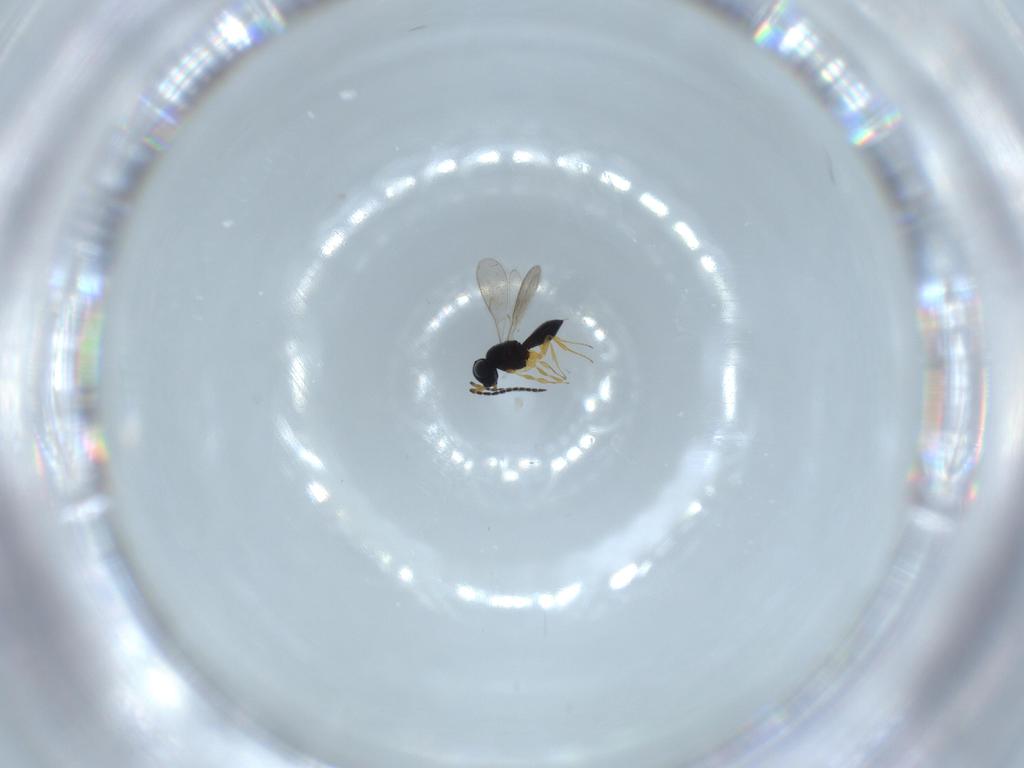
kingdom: Animalia
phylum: Arthropoda
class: Insecta
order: Hymenoptera
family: Scelionidae
